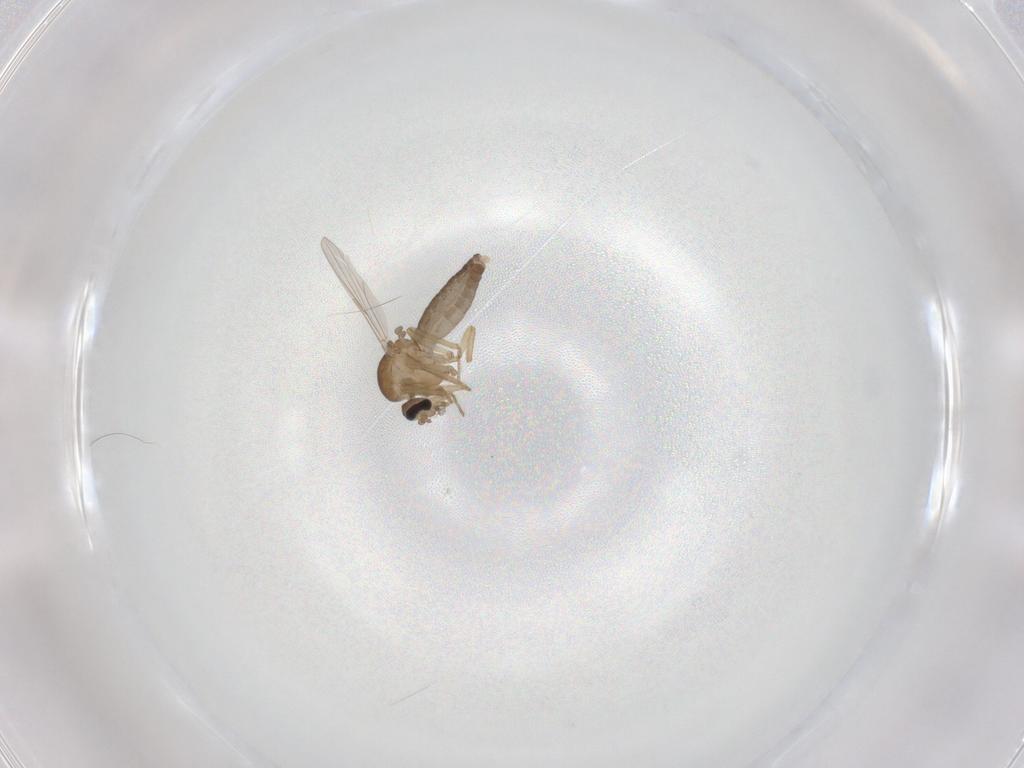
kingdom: Animalia
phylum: Arthropoda
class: Insecta
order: Diptera
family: Ceratopogonidae
